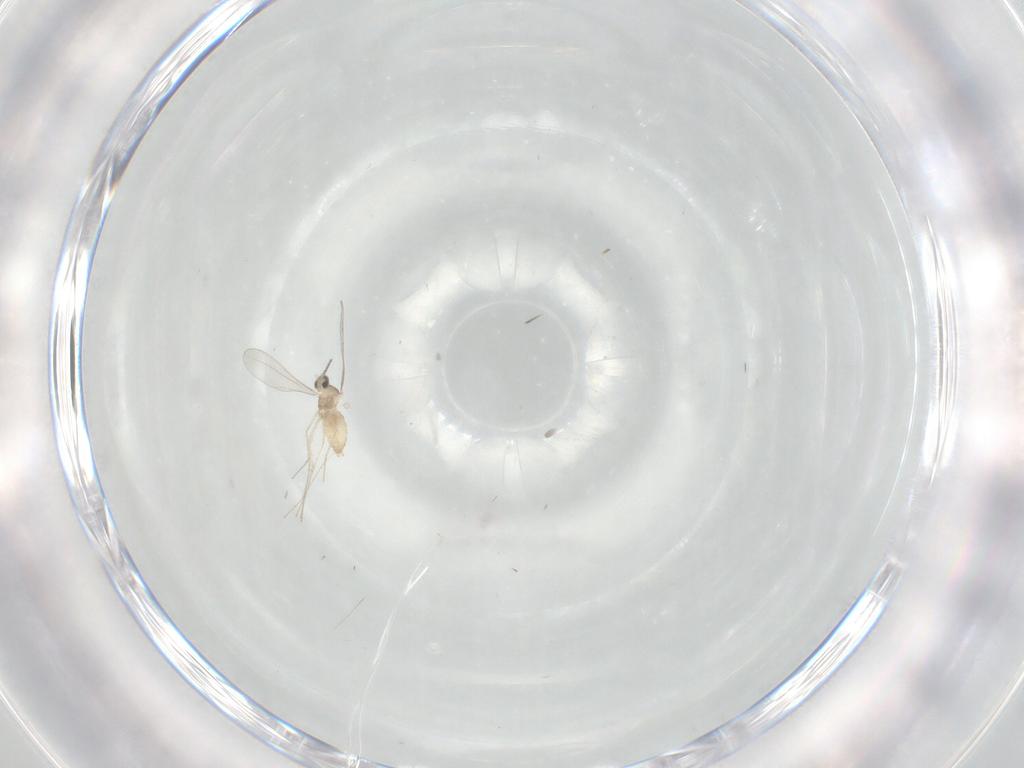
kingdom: Animalia
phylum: Arthropoda
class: Insecta
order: Diptera
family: Cecidomyiidae
